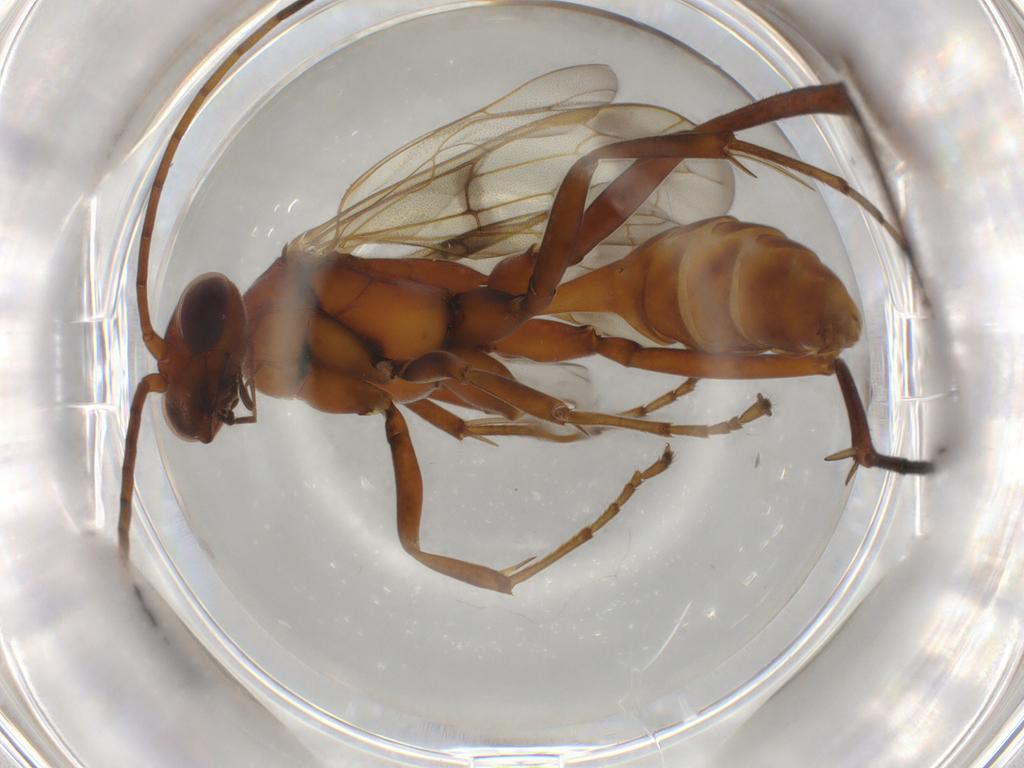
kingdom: Animalia
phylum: Arthropoda
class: Insecta
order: Hymenoptera
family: Pompilidae
